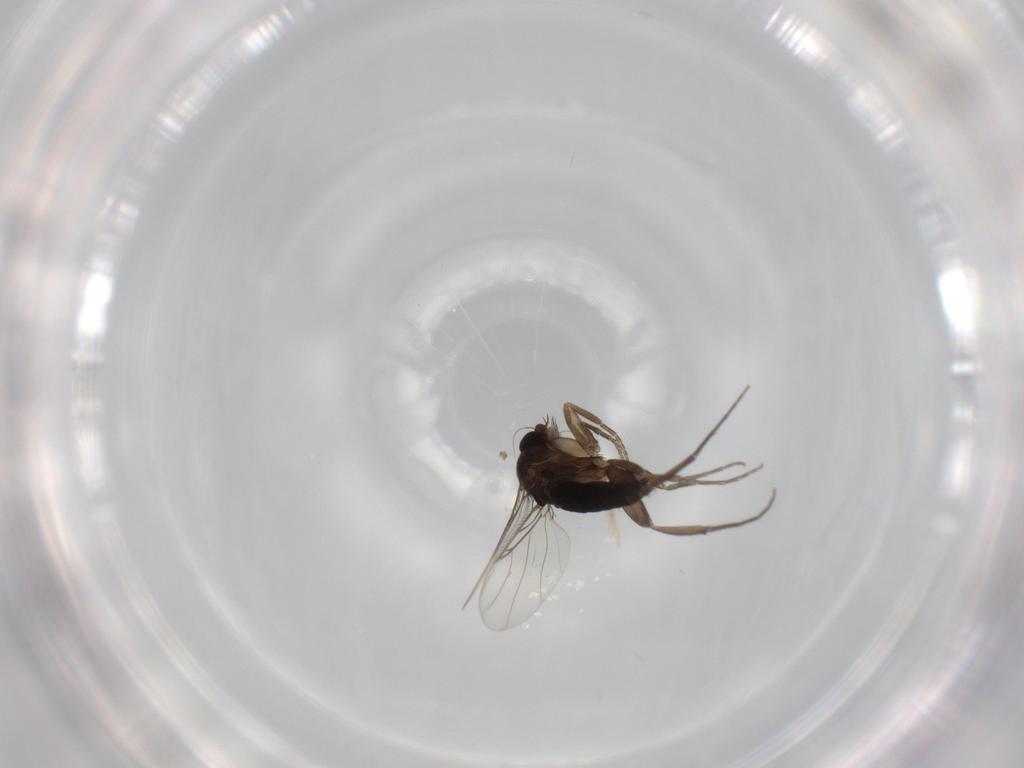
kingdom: Animalia
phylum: Arthropoda
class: Insecta
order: Diptera
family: Phoridae
